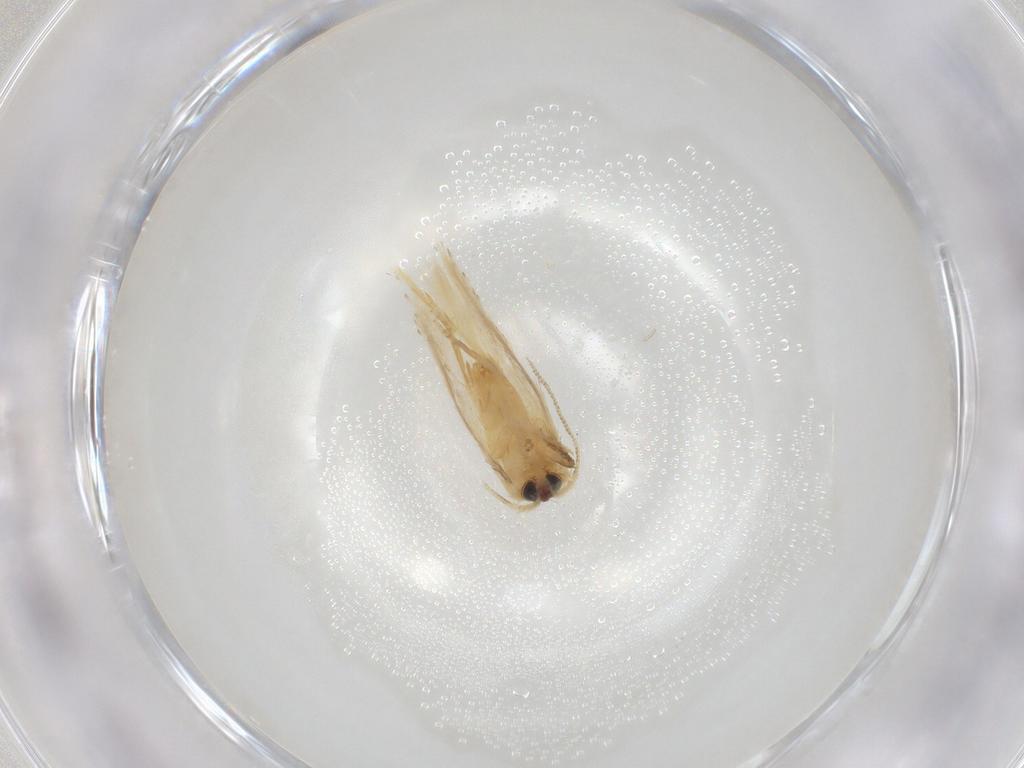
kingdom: Animalia
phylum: Arthropoda
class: Insecta
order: Lepidoptera
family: Nepticulidae
